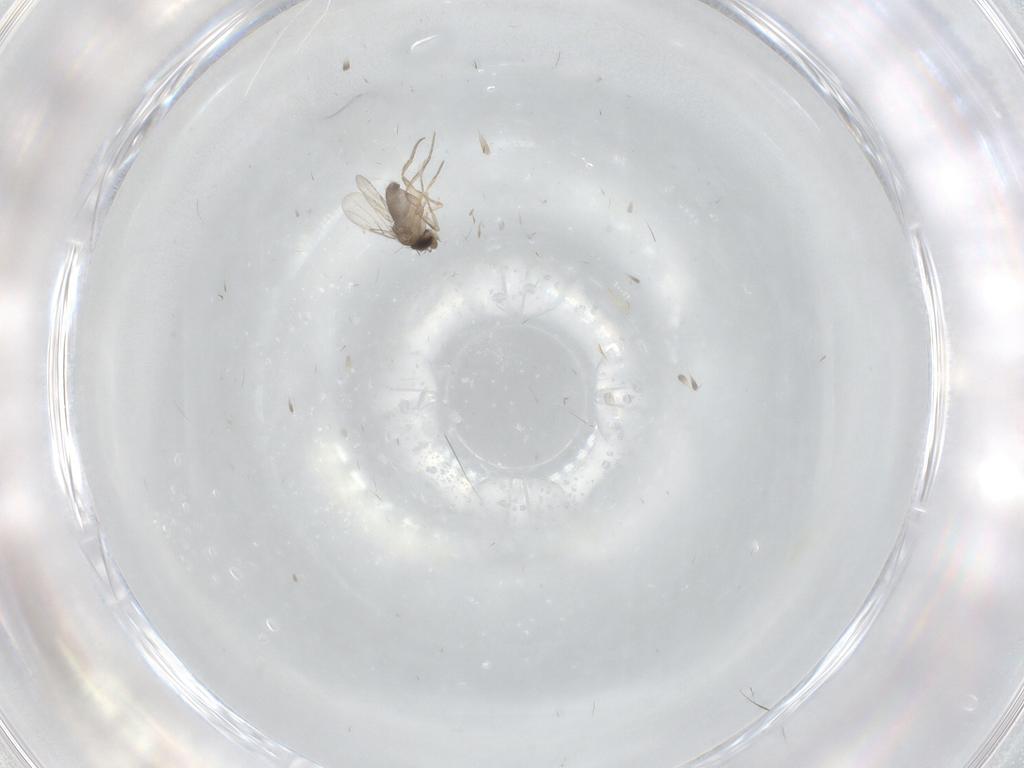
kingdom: Animalia
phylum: Arthropoda
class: Insecta
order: Diptera
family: Phoridae
